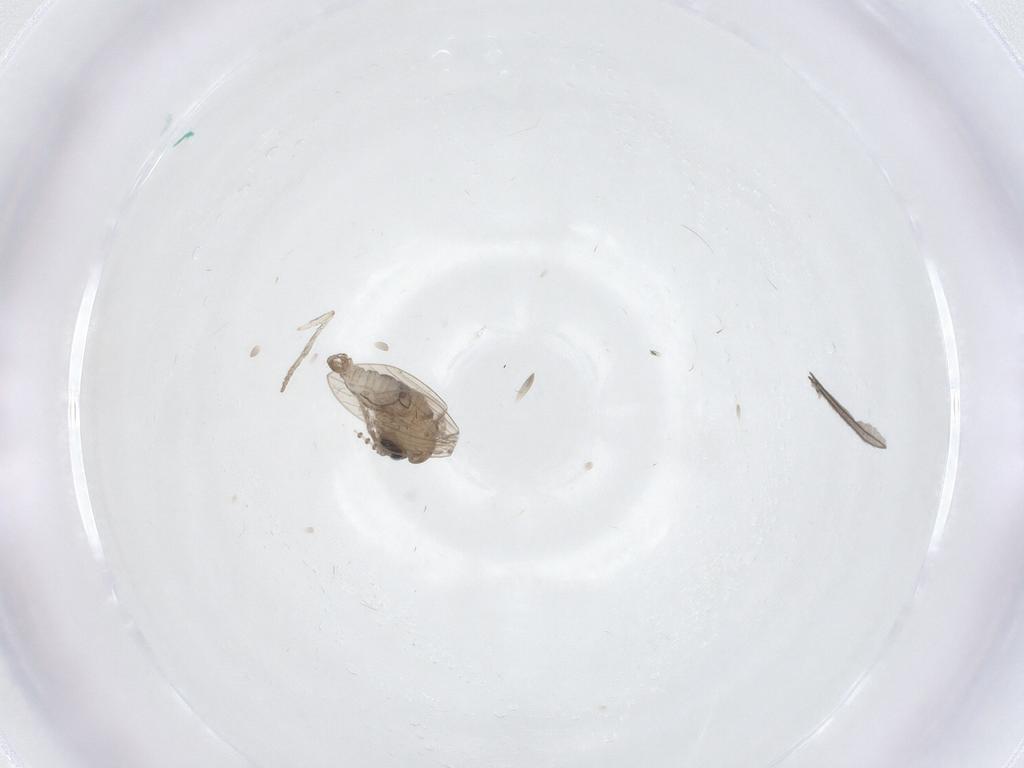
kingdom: Animalia
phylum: Arthropoda
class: Insecta
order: Diptera
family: Psychodidae
